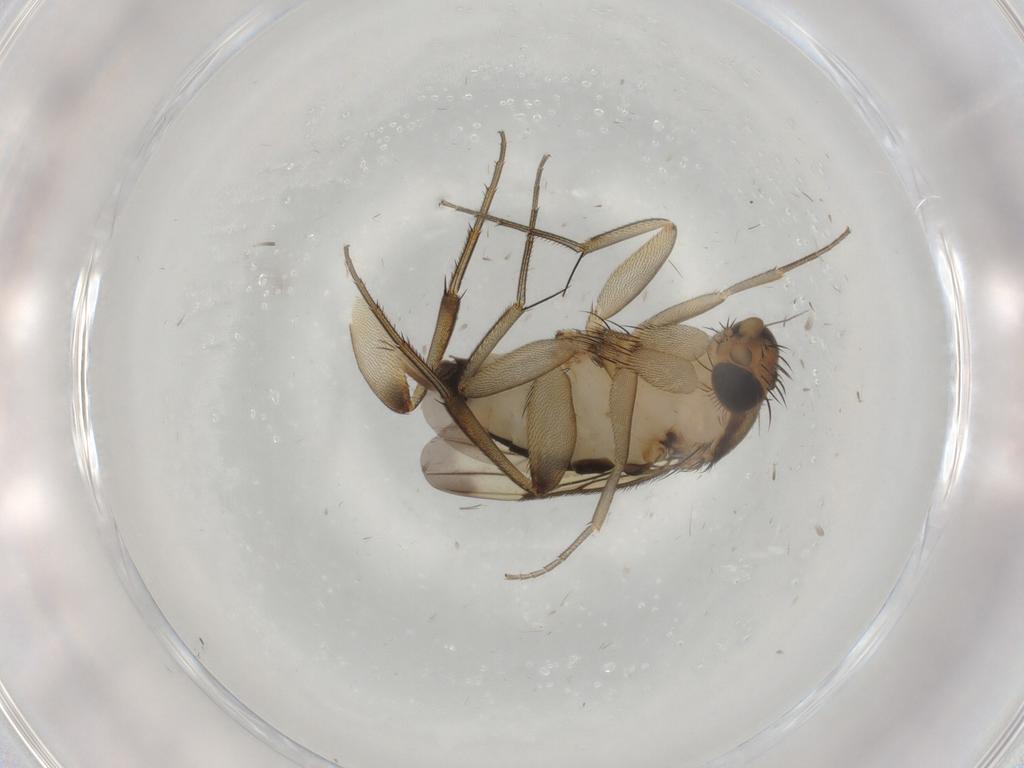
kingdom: Animalia
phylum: Arthropoda
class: Insecta
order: Diptera
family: Phoridae
